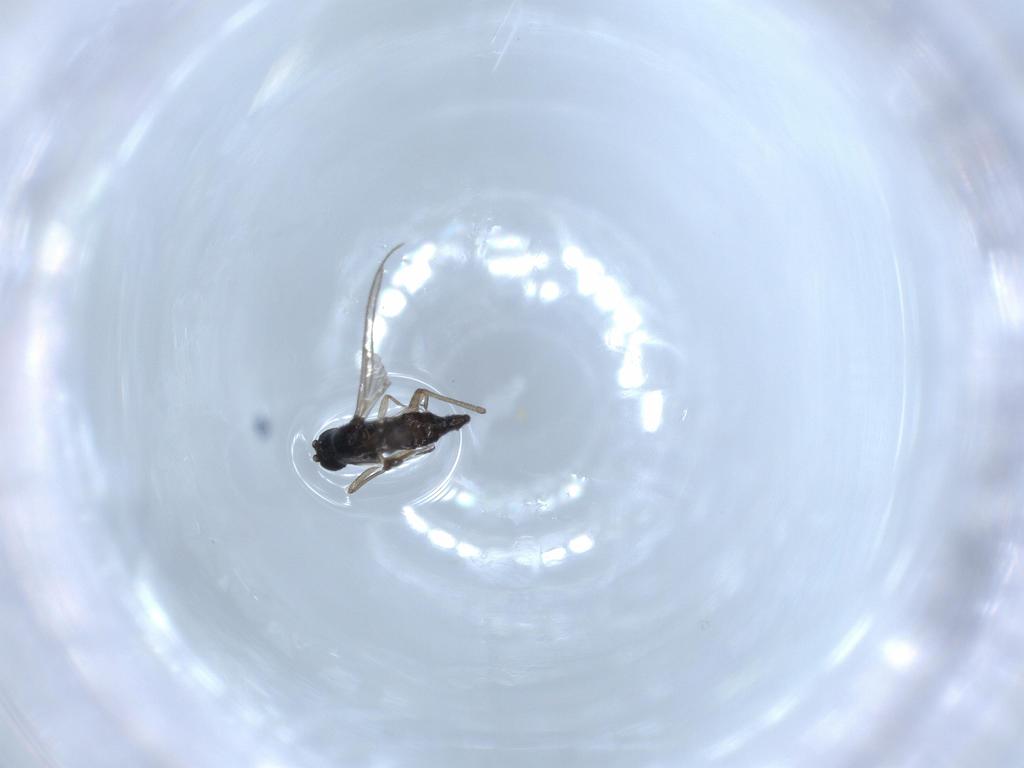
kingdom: Animalia
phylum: Arthropoda
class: Insecta
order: Diptera
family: Sciaridae
